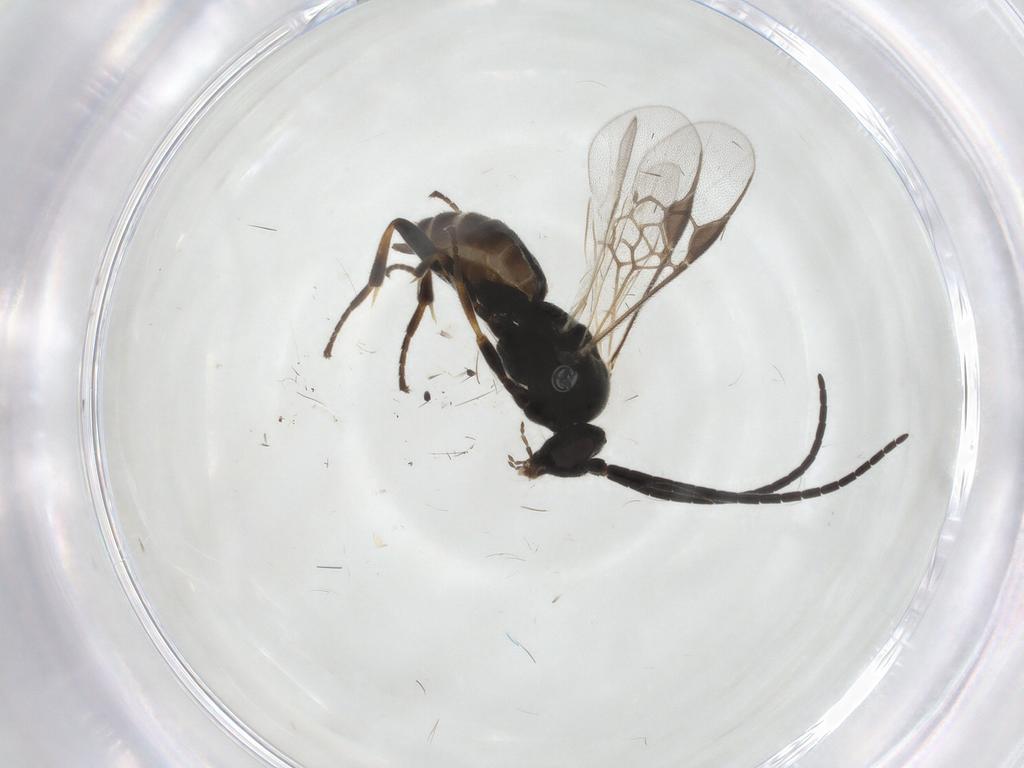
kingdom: Animalia
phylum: Arthropoda
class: Insecta
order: Hymenoptera
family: Braconidae
